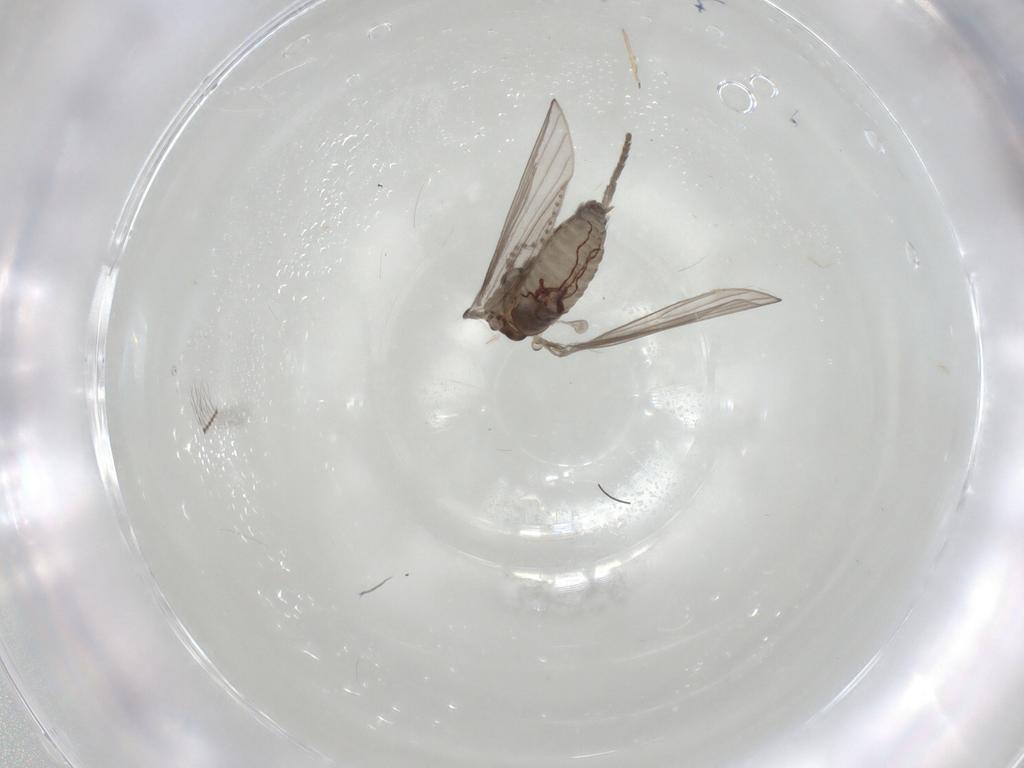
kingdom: Animalia
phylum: Arthropoda
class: Insecta
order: Diptera
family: Psychodidae
